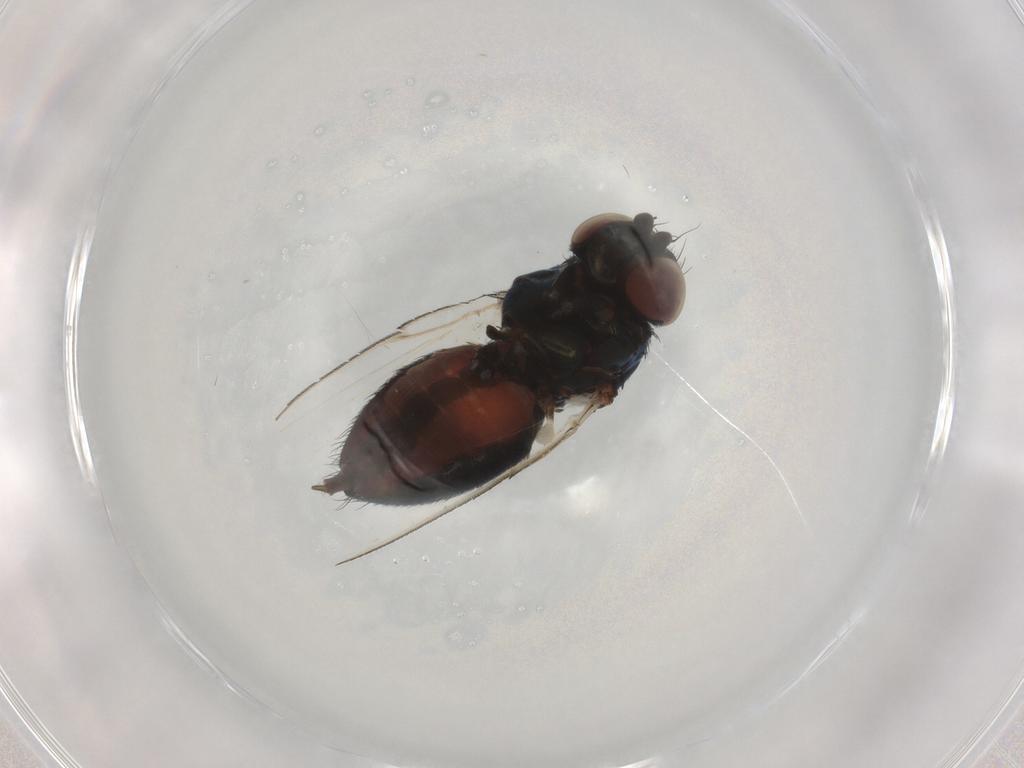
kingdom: Animalia
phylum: Arthropoda
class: Insecta
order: Diptera
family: Milichiidae
